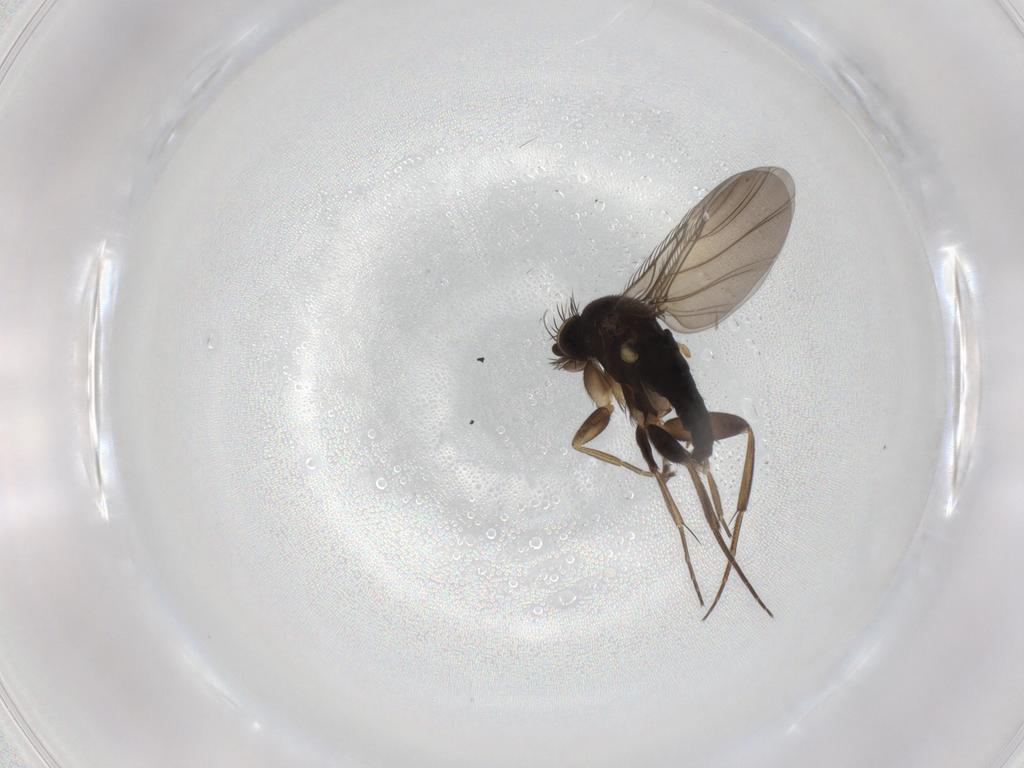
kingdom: Animalia
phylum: Arthropoda
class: Insecta
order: Diptera
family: Phoridae
